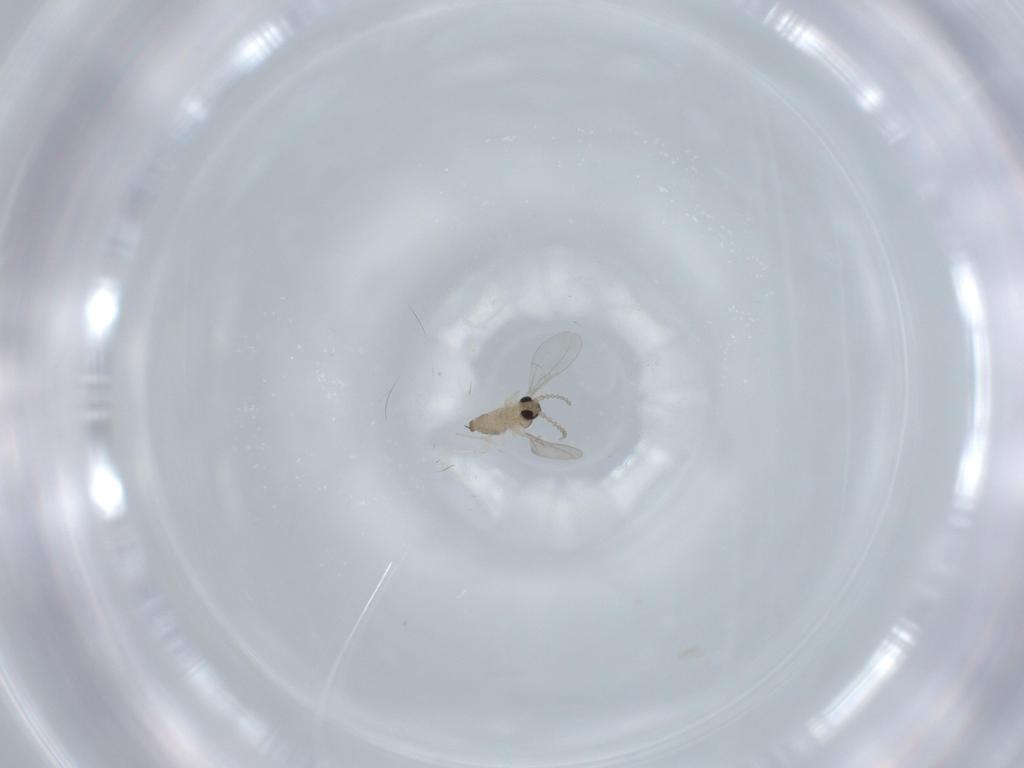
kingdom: Animalia
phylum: Arthropoda
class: Insecta
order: Diptera
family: Cecidomyiidae
